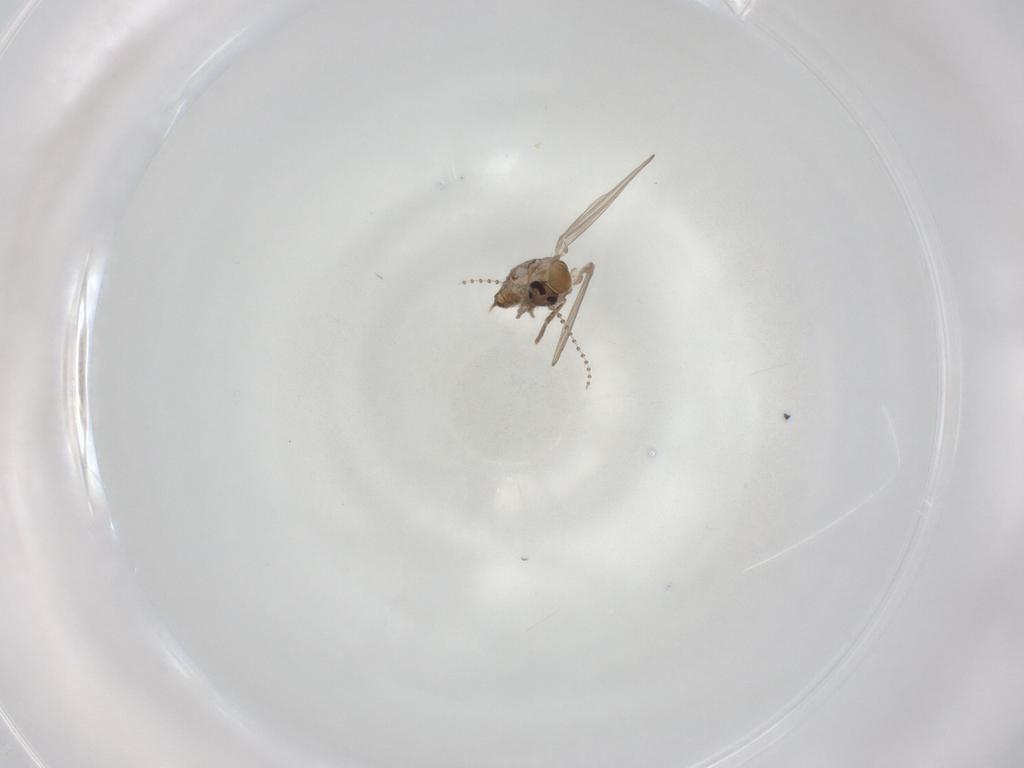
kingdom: Animalia
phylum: Arthropoda
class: Insecta
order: Diptera
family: Psychodidae
